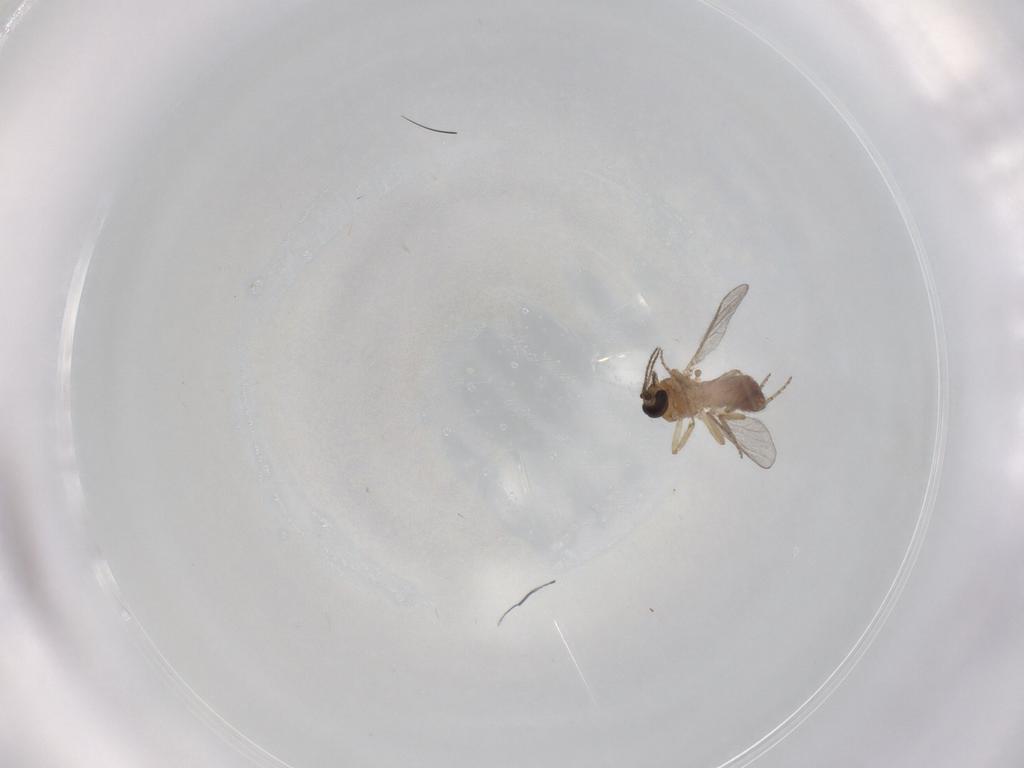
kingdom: Animalia
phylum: Arthropoda
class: Insecta
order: Diptera
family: Ceratopogonidae
